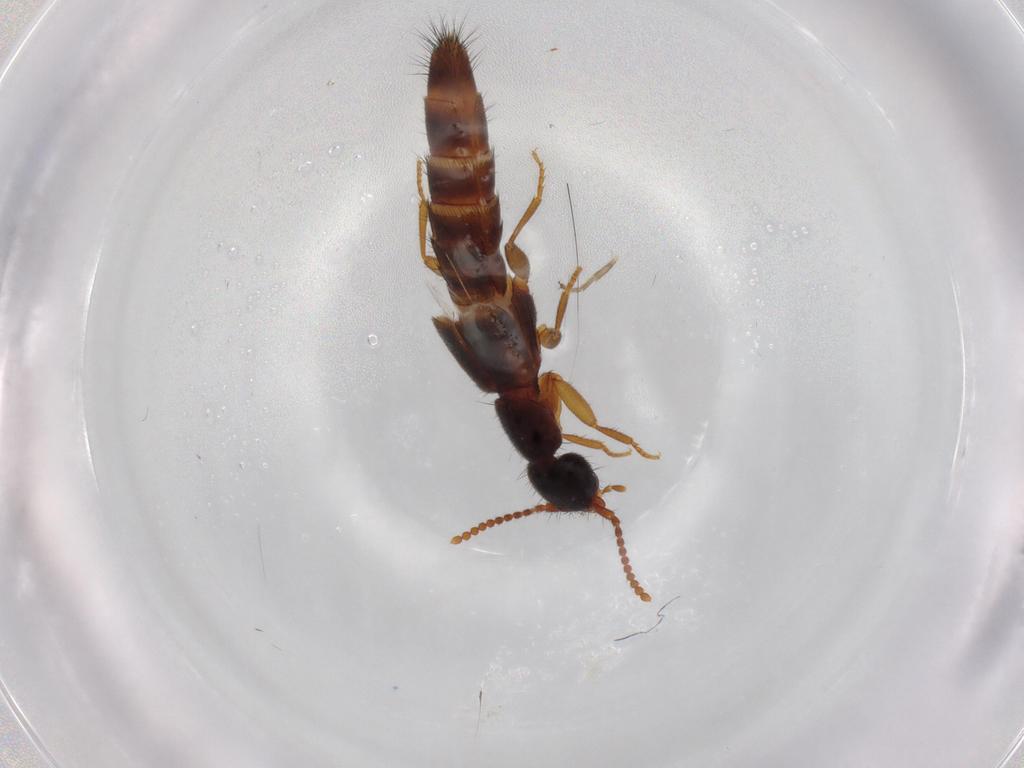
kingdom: Animalia
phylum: Arthropoda
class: Insecta
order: Coleoptera
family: Staphylinidae
